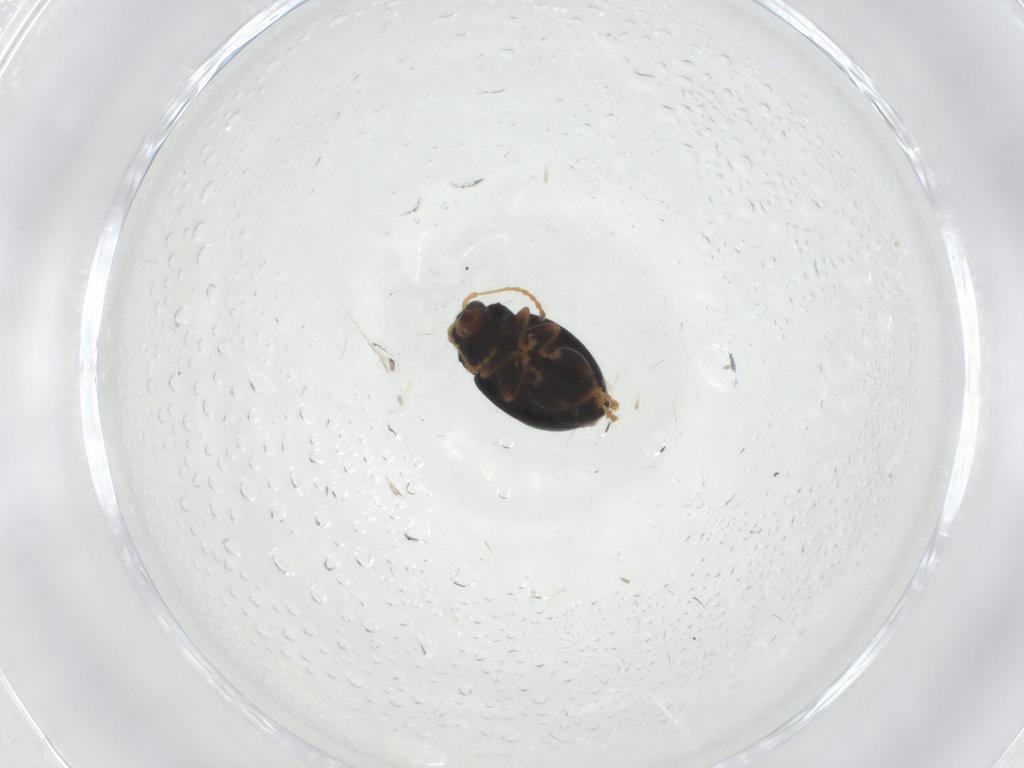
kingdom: Animalia
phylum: Arthropoda
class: Insecta
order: Coleoptera
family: Chrysomelidae
